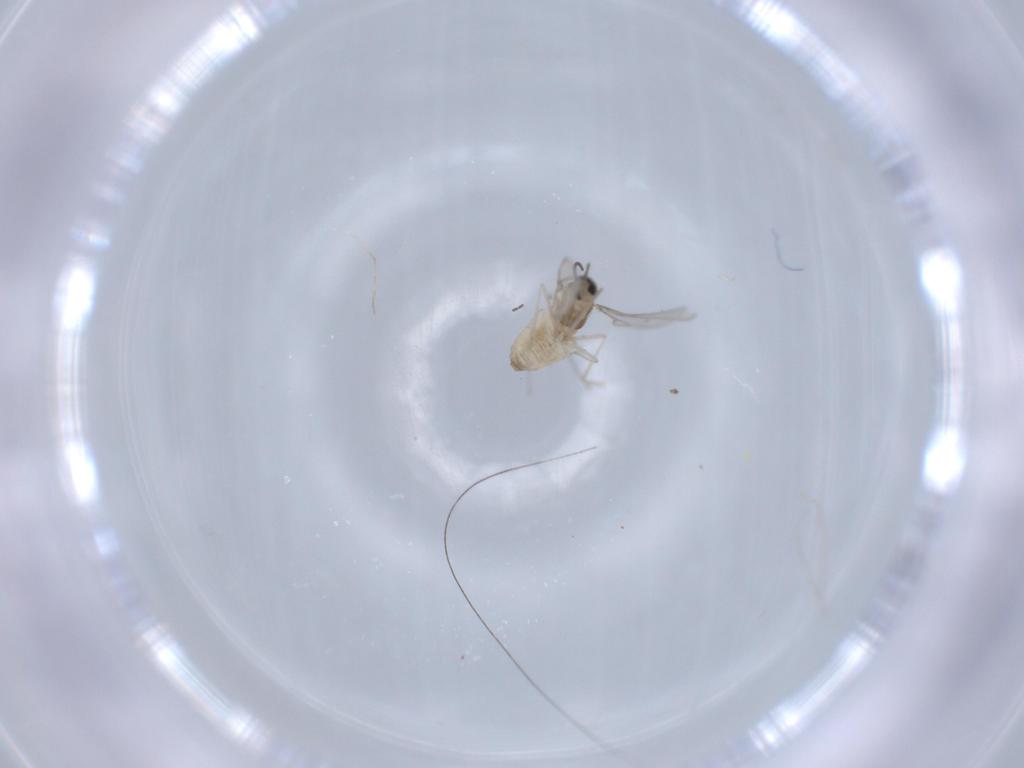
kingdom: Animalia
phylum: Arthropoda
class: Insecta
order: Diptera
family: Cecidomyiidae
